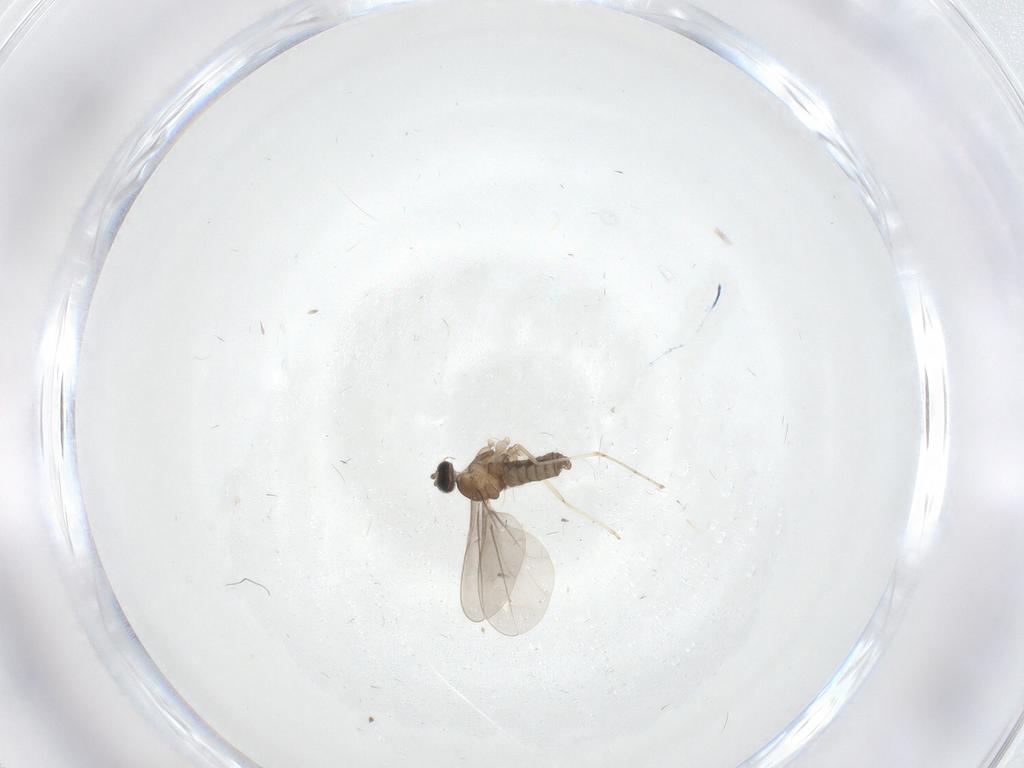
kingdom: Animalia
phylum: Arthropoda
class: Insecta
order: Diptera
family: Cecidomyiidae
